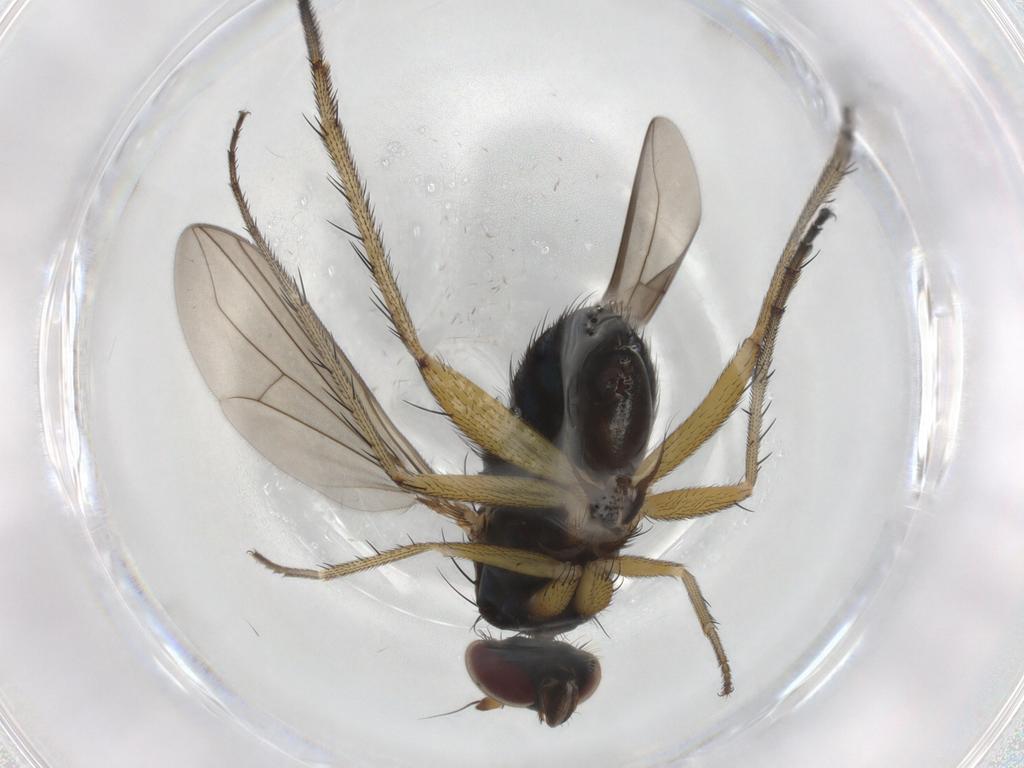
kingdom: Animalia
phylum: Arthropoda
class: Insecta
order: Diptera
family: Dolichopodidae
